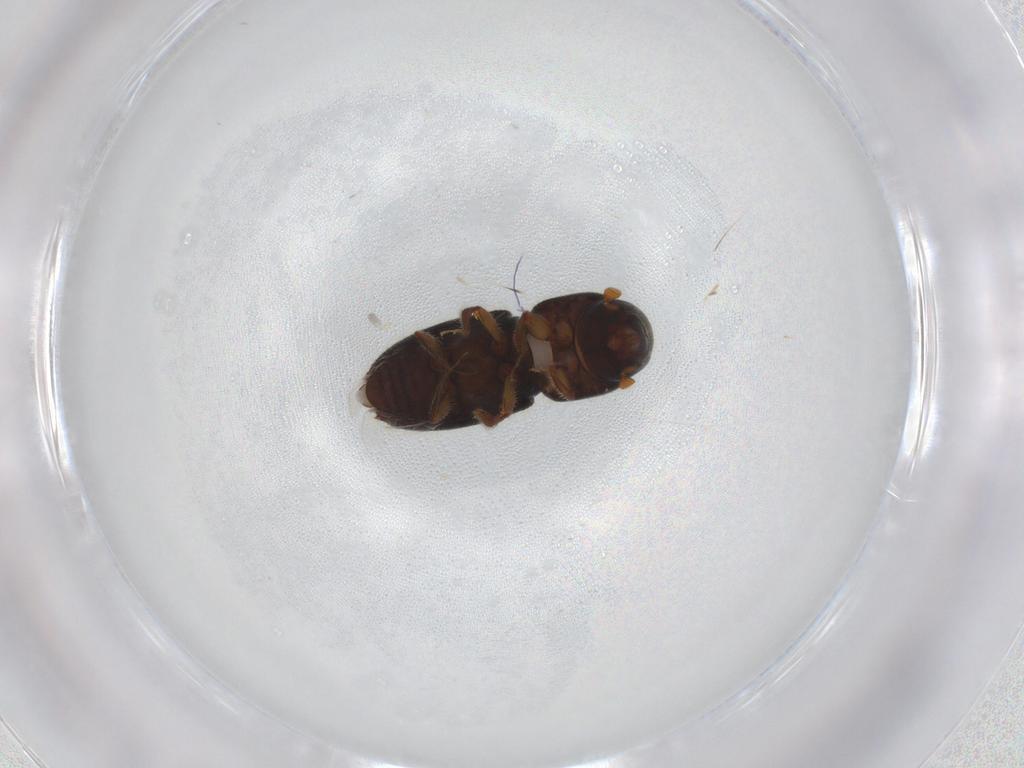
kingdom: Animalia
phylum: Arthropoda
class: Insecta
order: Coleoptera
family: Curculionidae
